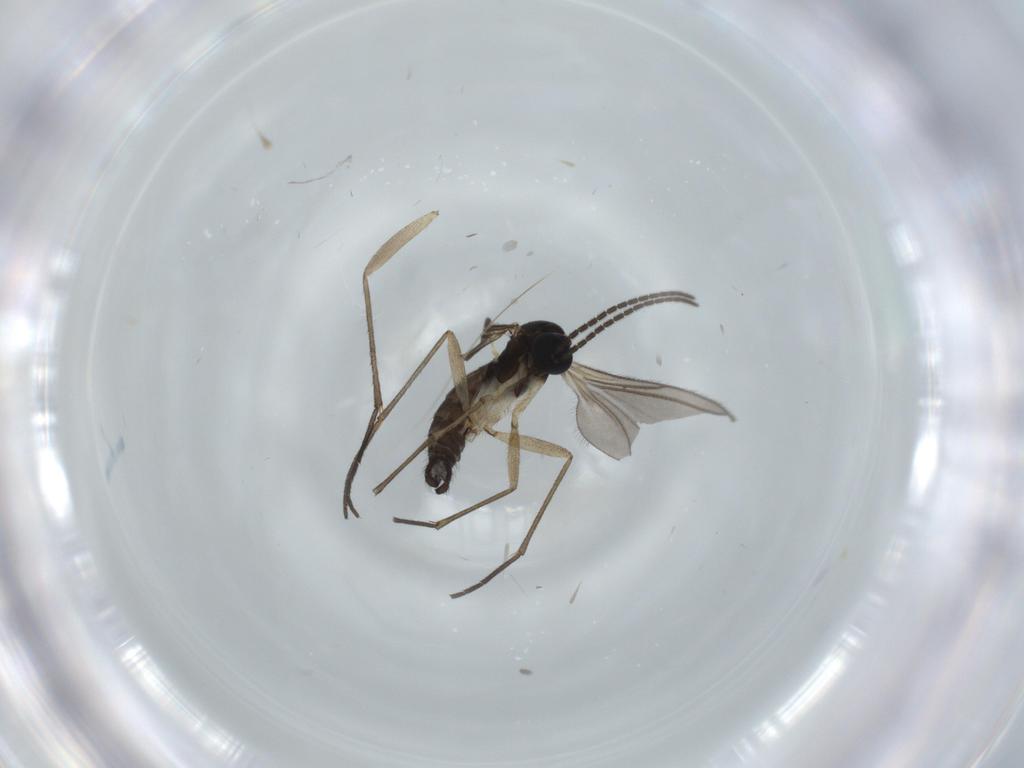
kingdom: Animalia
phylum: Arthropoda
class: Insecta
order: Diptera
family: Sciaridae
